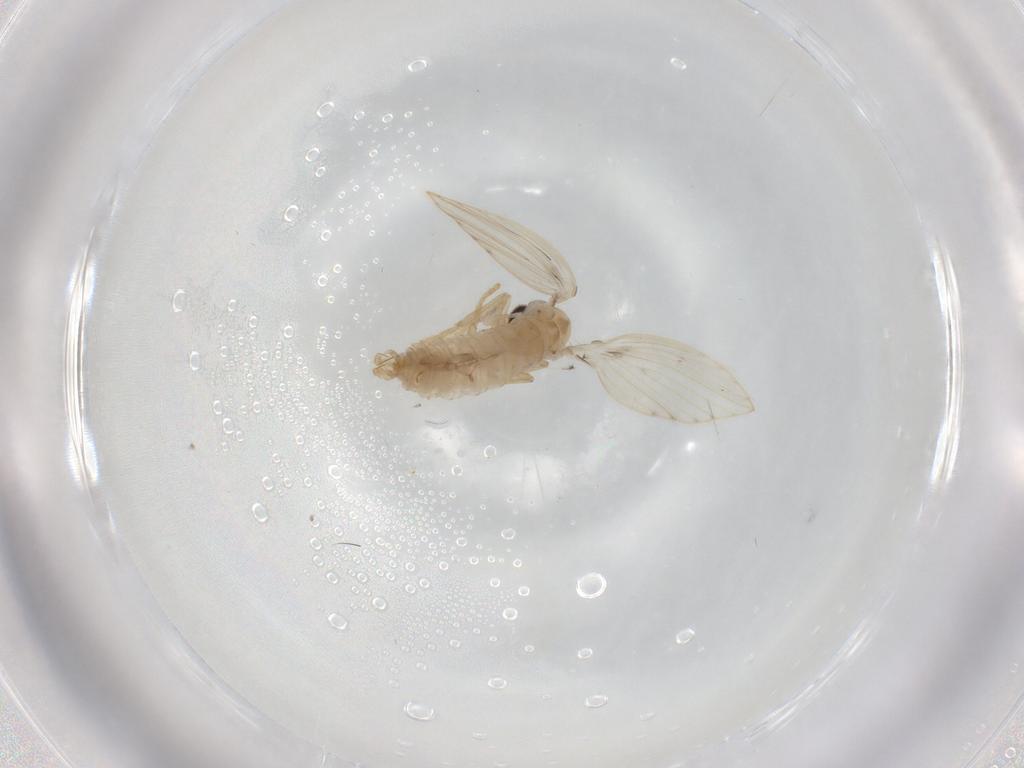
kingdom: Animalia
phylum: Arthropoda
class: Insecta
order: Diptera
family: Psychodidae
